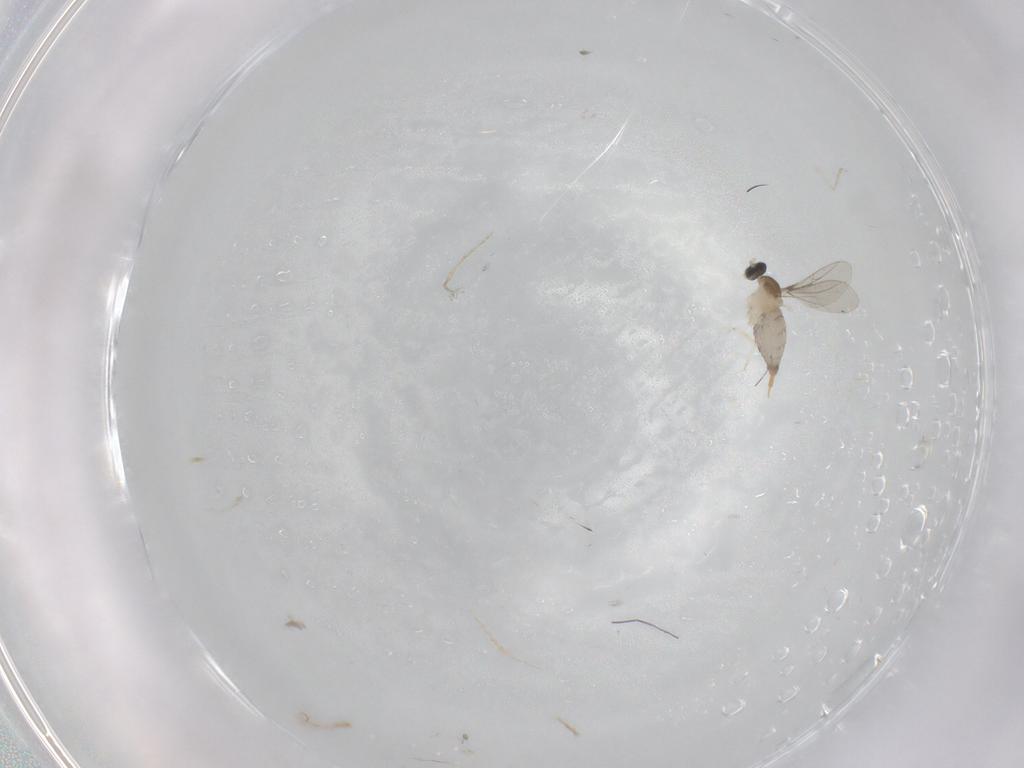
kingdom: Animalia
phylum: Arthropoda
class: Insecta
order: Diptera
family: Cecidomyiidae
